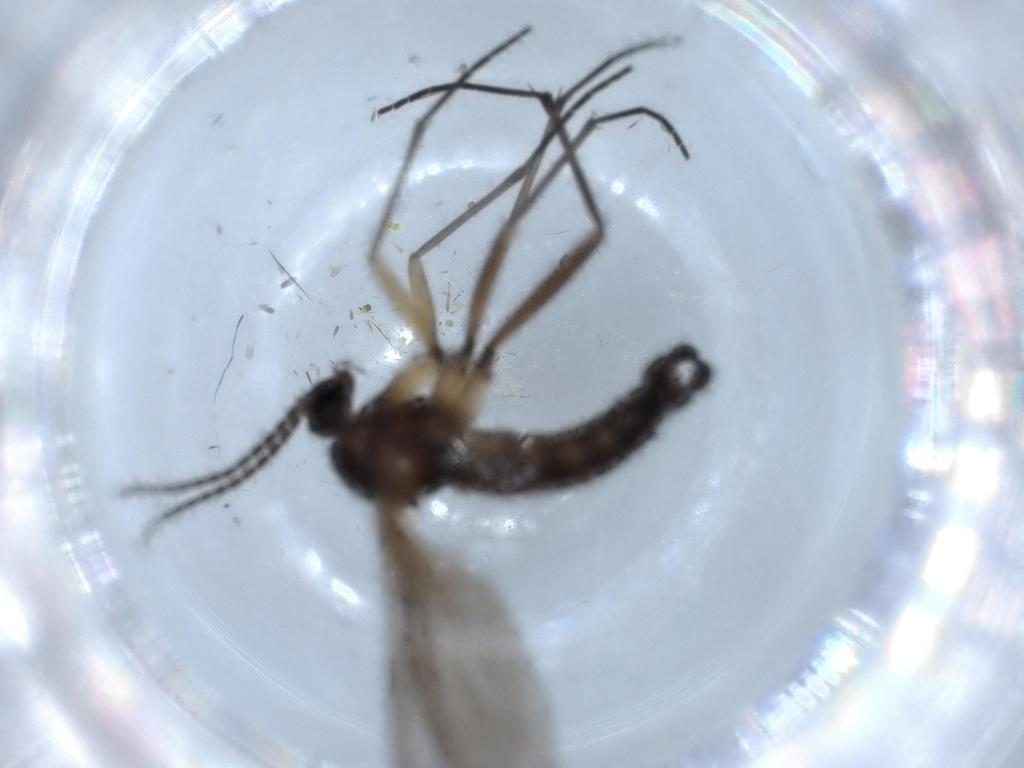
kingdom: Animalia
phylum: Arthropoda
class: Insecta
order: Diptera
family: Sciaridae
